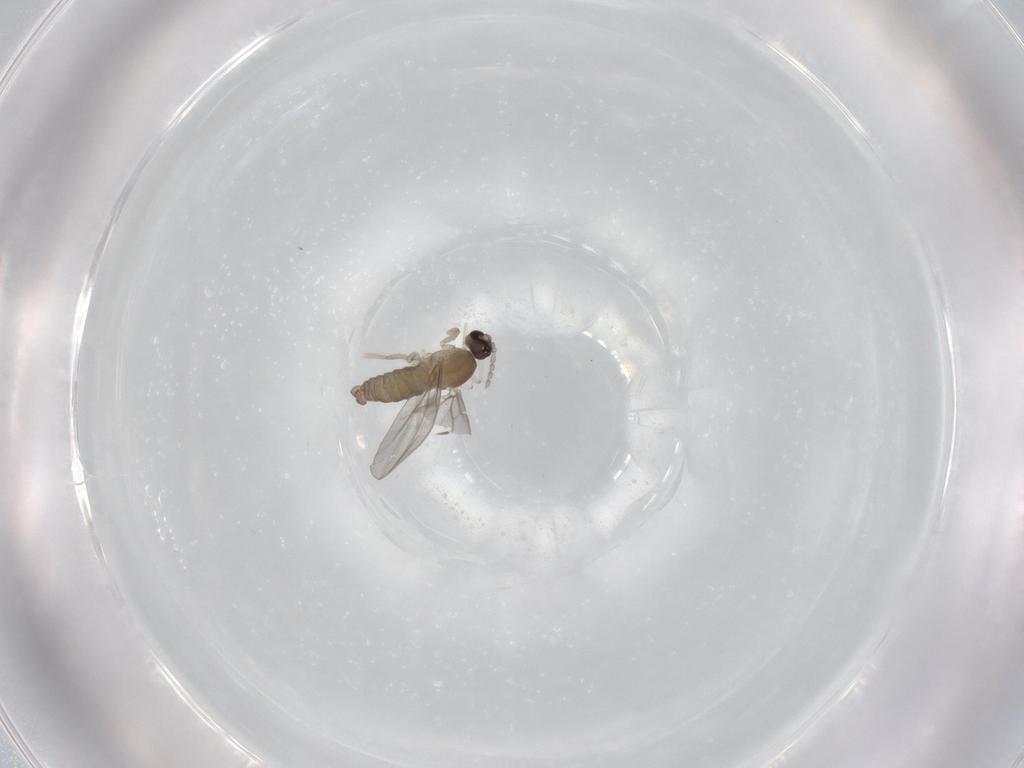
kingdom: Animalia
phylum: Arthropoda
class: Insecta
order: Diptera
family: Cecidomyiidae
